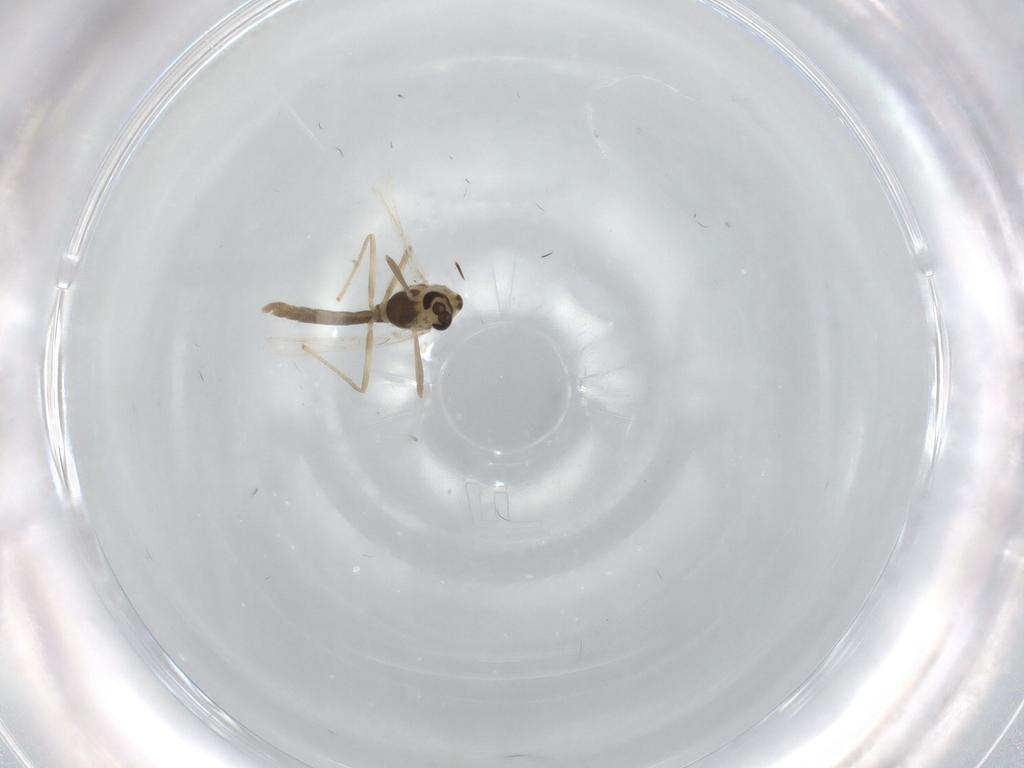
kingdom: Animalia
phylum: Arthropoda
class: Insecta
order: Diptera
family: Chironomidae
